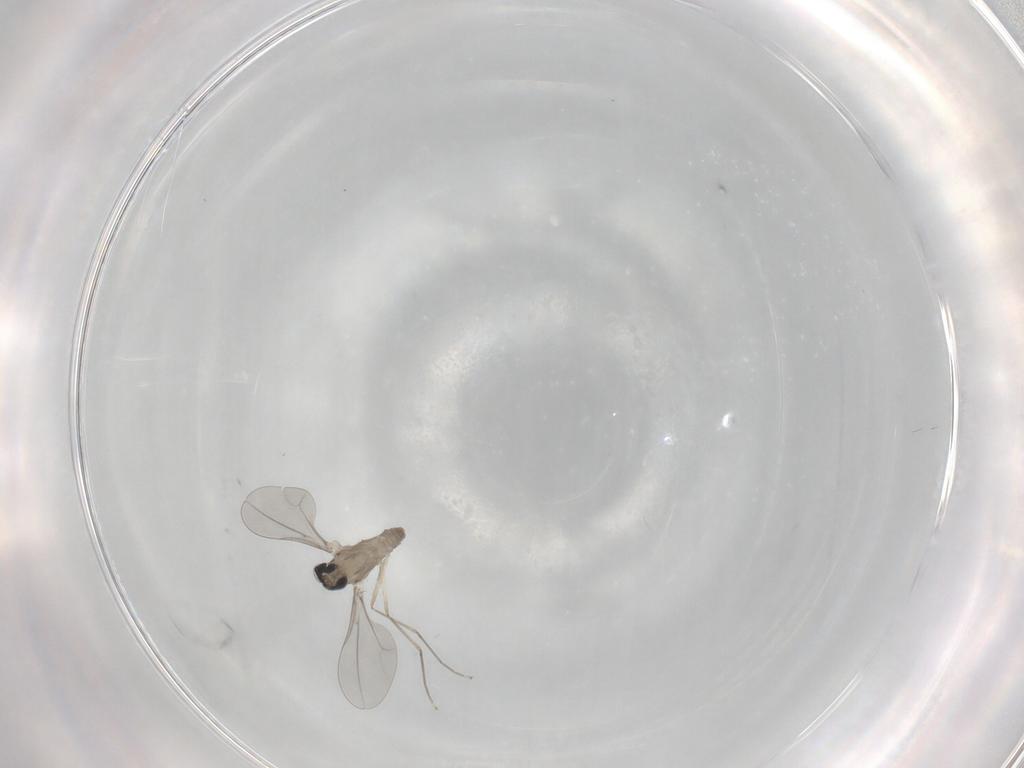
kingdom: Animalia
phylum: Arthropoda
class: Insecta
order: Diptera
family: Cecidomyiidae
